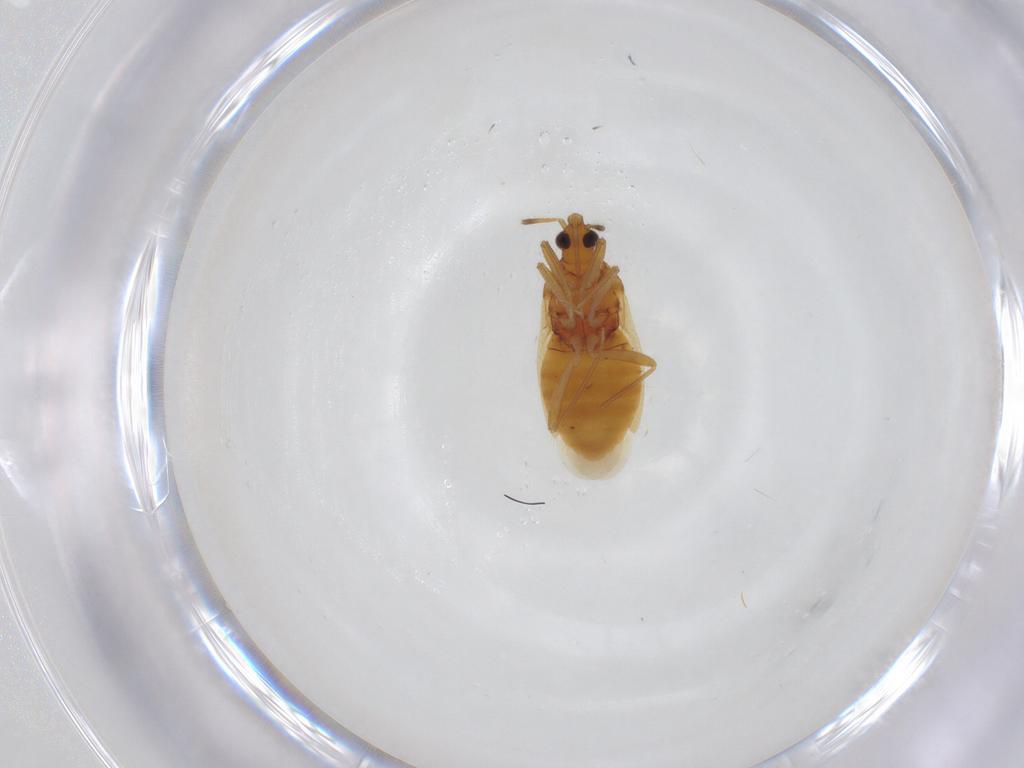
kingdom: Animalia
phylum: Arthropoda
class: Insecta
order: Hemiptera
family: Anthocoridae
